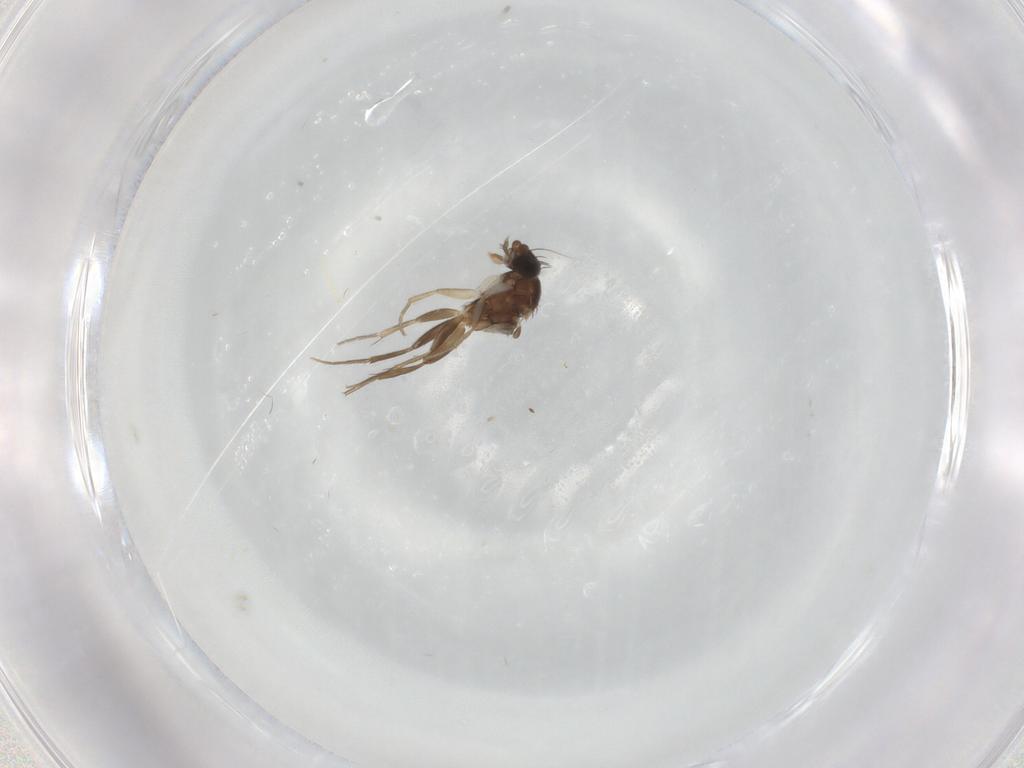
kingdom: Animalia
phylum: Arthropoda
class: Insecta
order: Diptera
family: Phoridae
